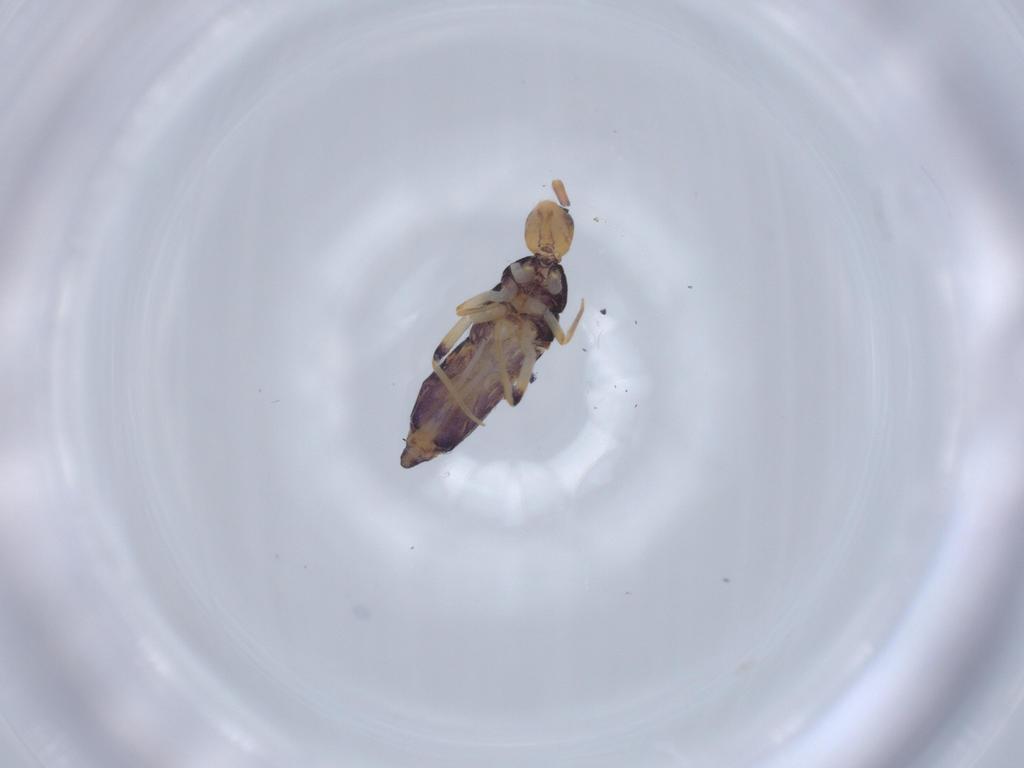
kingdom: Animalia
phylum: Arthropoda
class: Collembola
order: Entomobryomorpha
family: Entomobryidae
